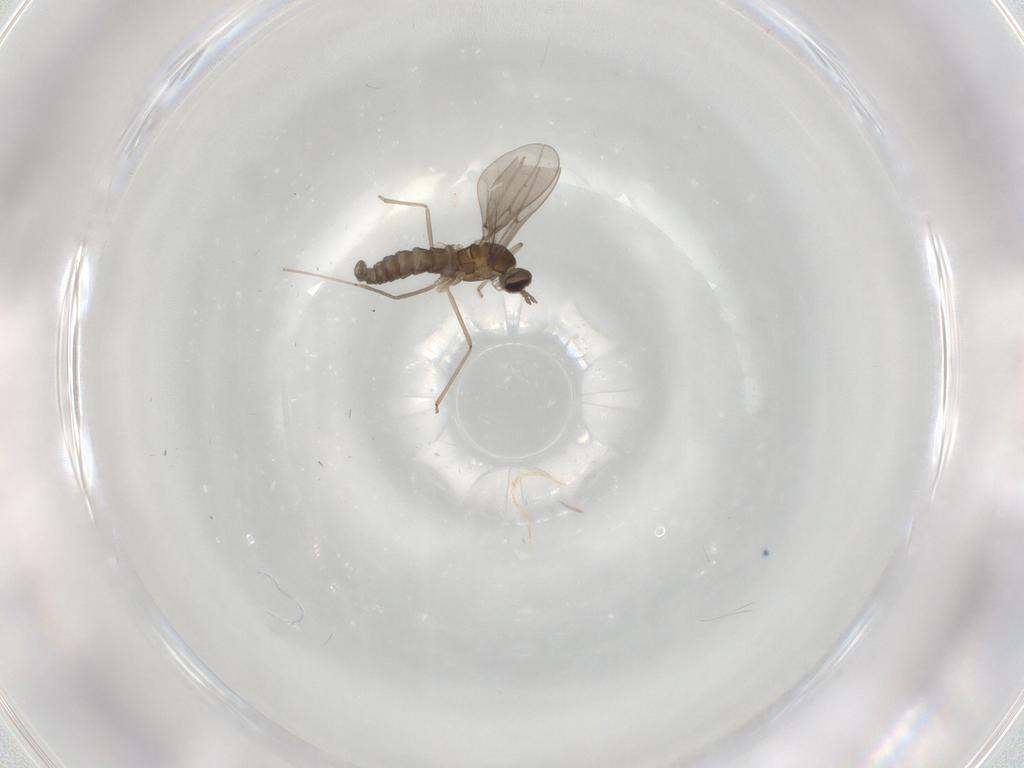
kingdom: Animalia
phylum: Arthropoda
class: Insecta
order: Diptera
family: Cecidomyiidae
